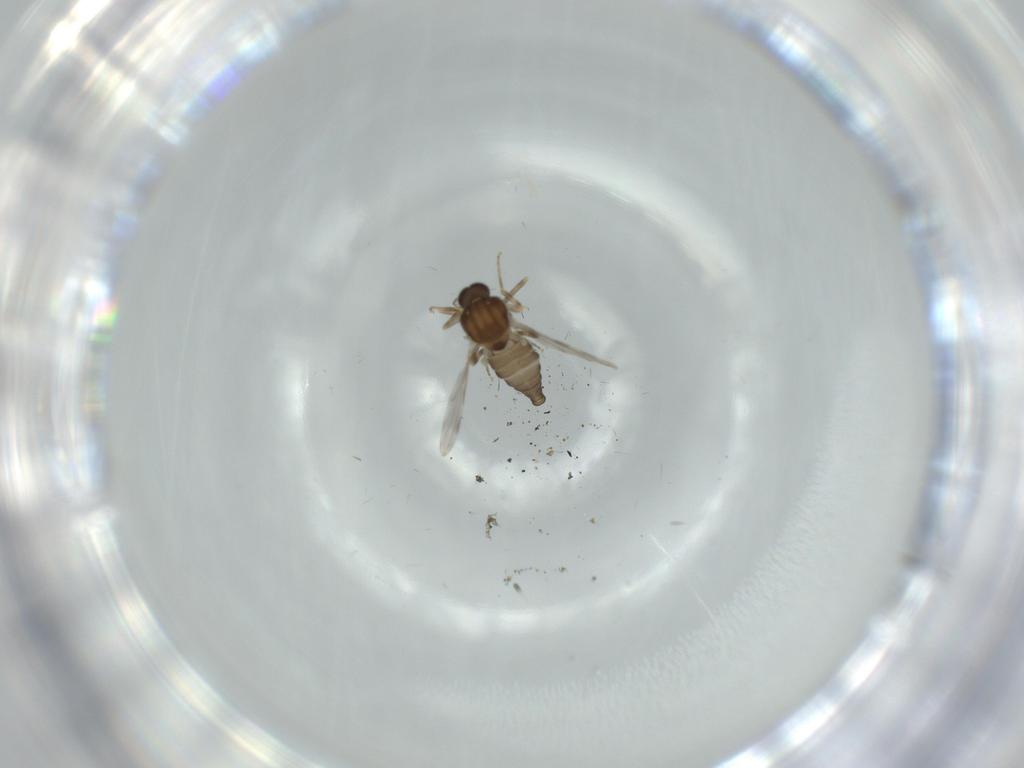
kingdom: Animalia
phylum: Arthropoda
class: Insecta
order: Diptera
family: Ceratopogonidae
